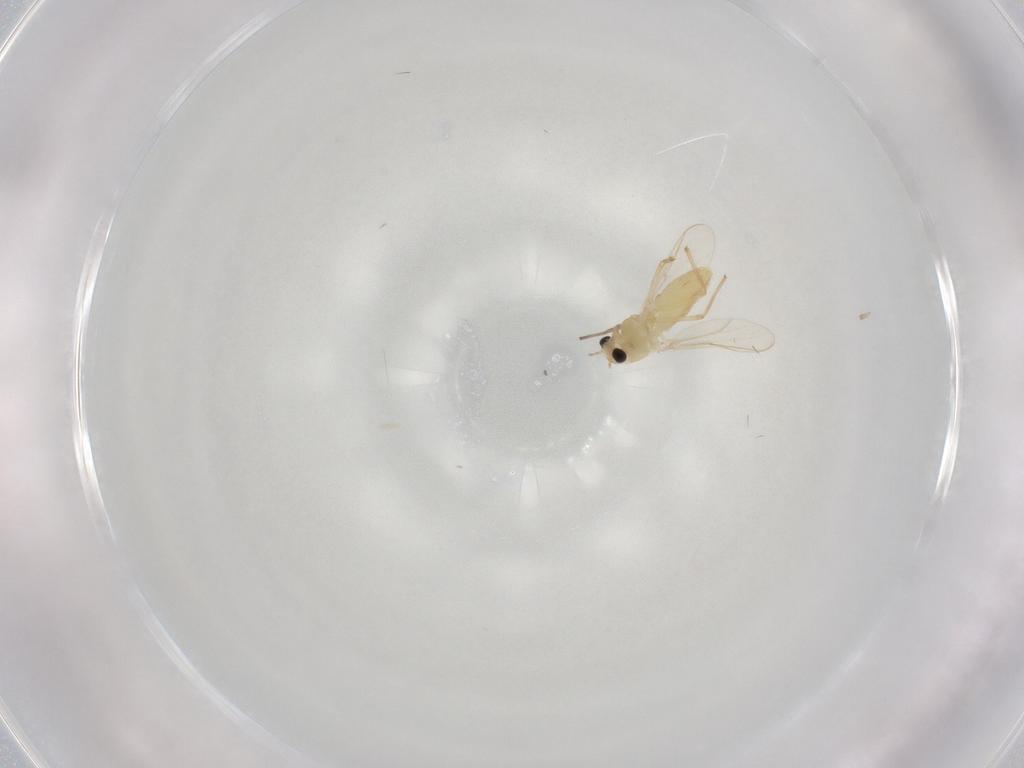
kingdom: Animalia
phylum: Arthropoda
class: Insecta
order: Diptera
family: Chironomidae
